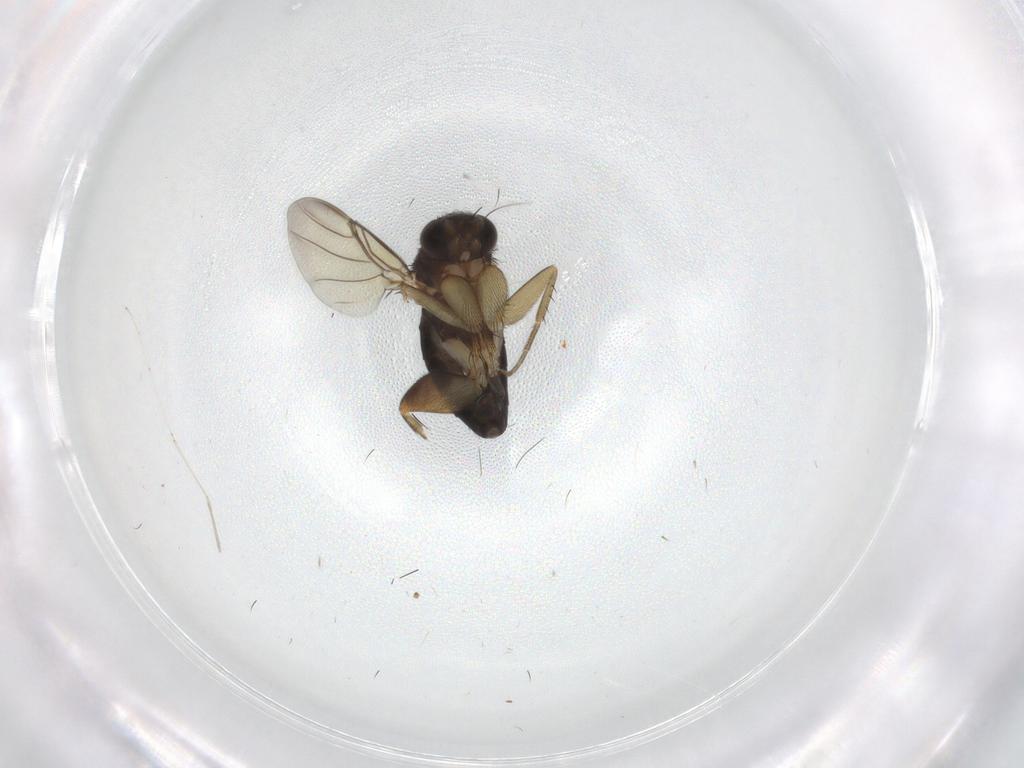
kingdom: Animalia
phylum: Arthropoda
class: Insecta
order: Diptera
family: Phoridae
